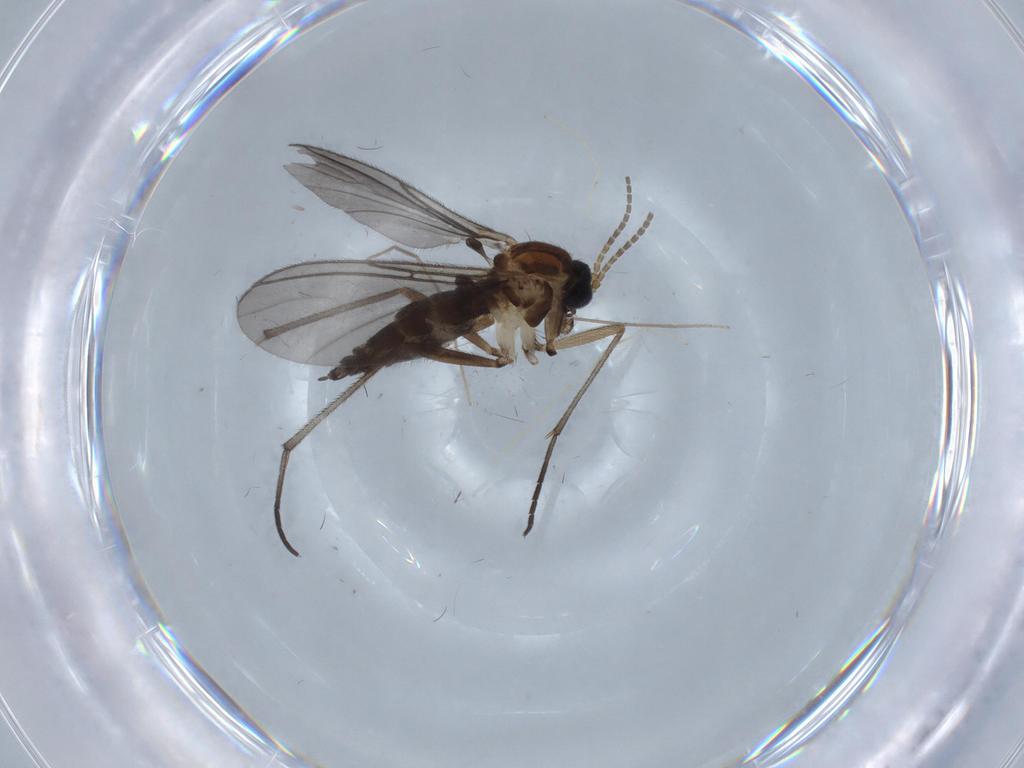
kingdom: Animalia
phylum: Arthropoda
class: Insecta
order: Diptera
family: Sciaridae
